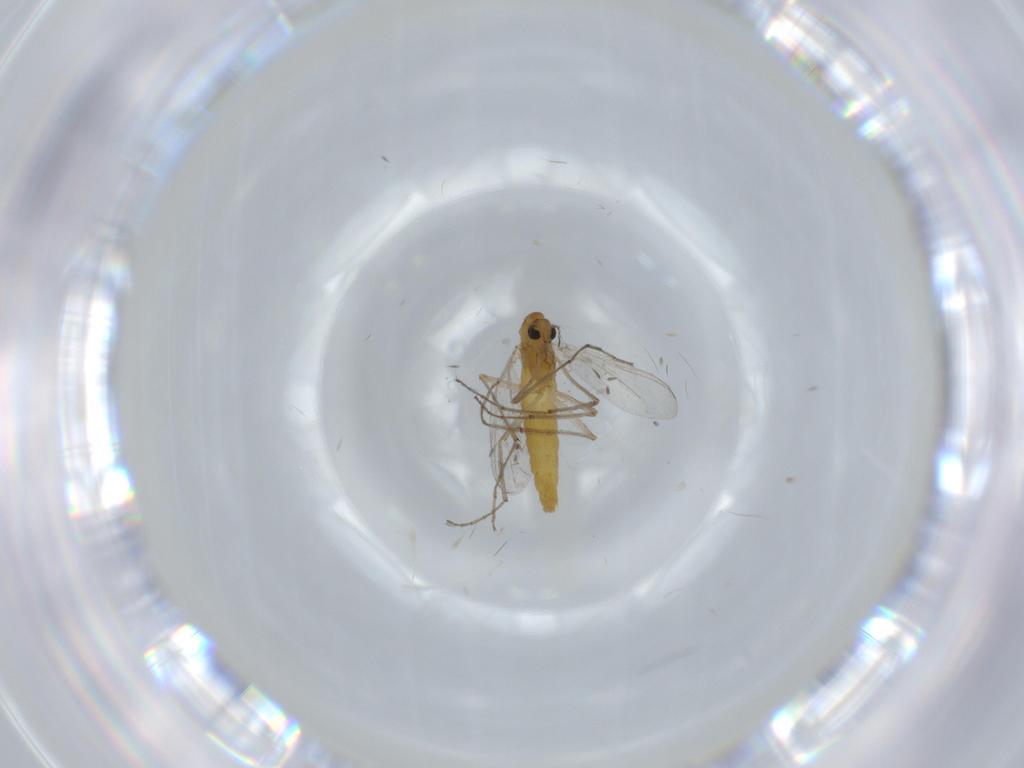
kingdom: Animalia
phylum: Arthropoda
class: Insecta
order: Diptera
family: Chironomidae
